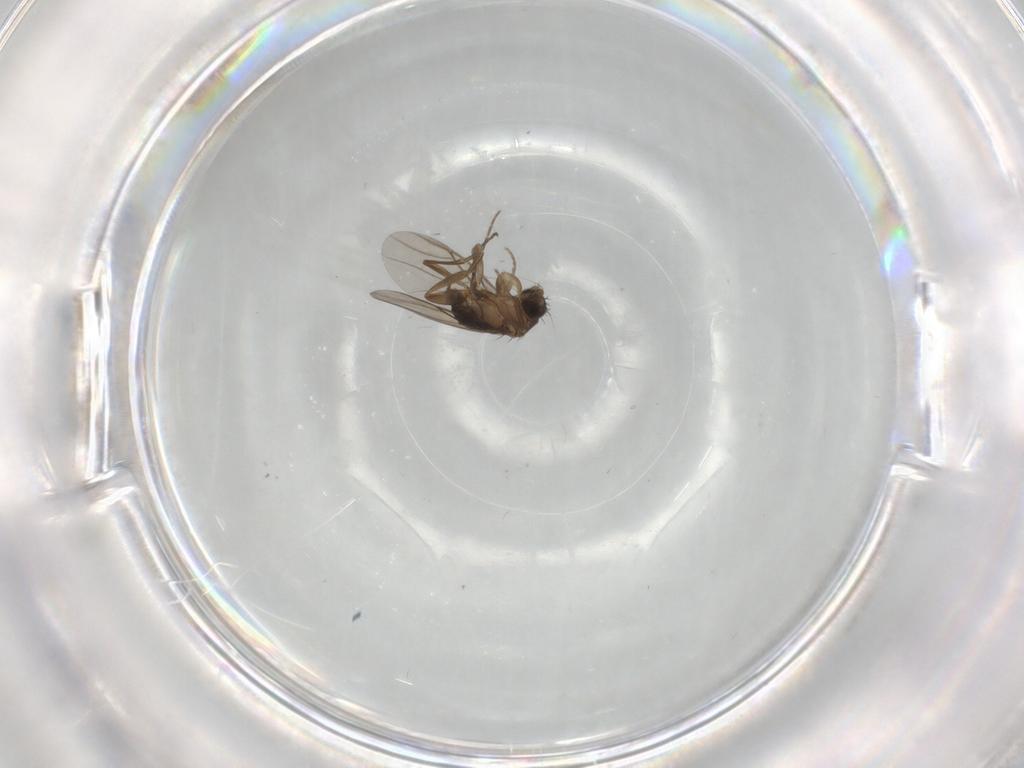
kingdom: Animalia
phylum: Arthropoda
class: Insecta
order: Diptera
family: Phoridae
